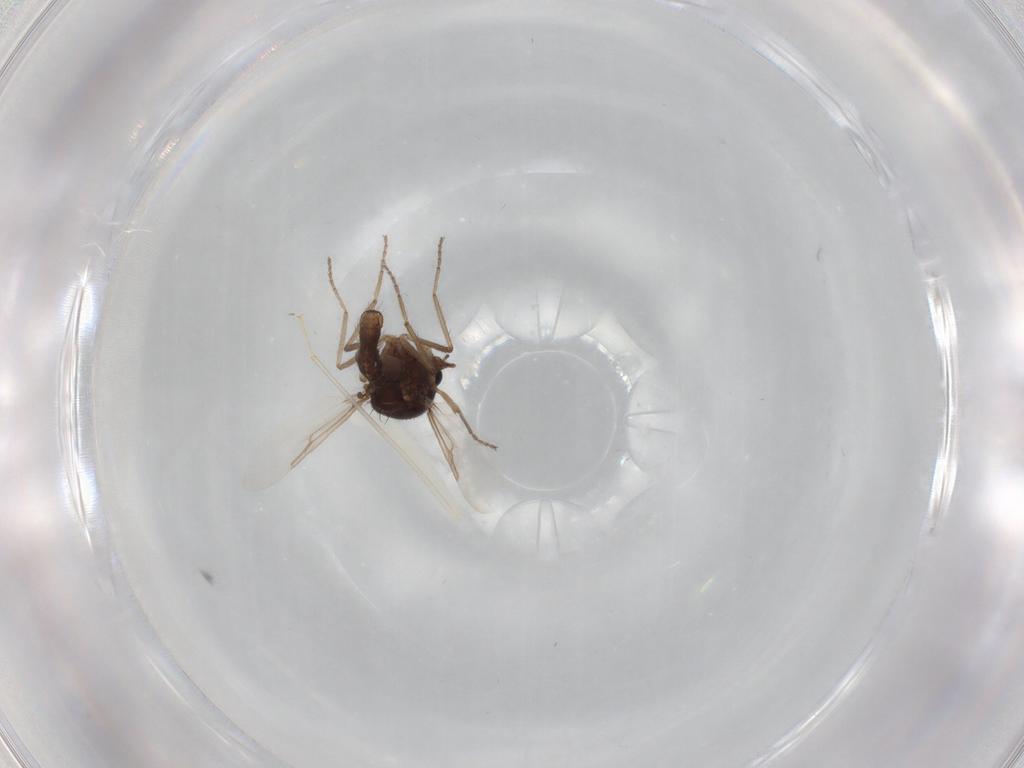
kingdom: Animalia
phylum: Arthropoda
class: Insecta
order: Diptera
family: Ceratopogonidae
